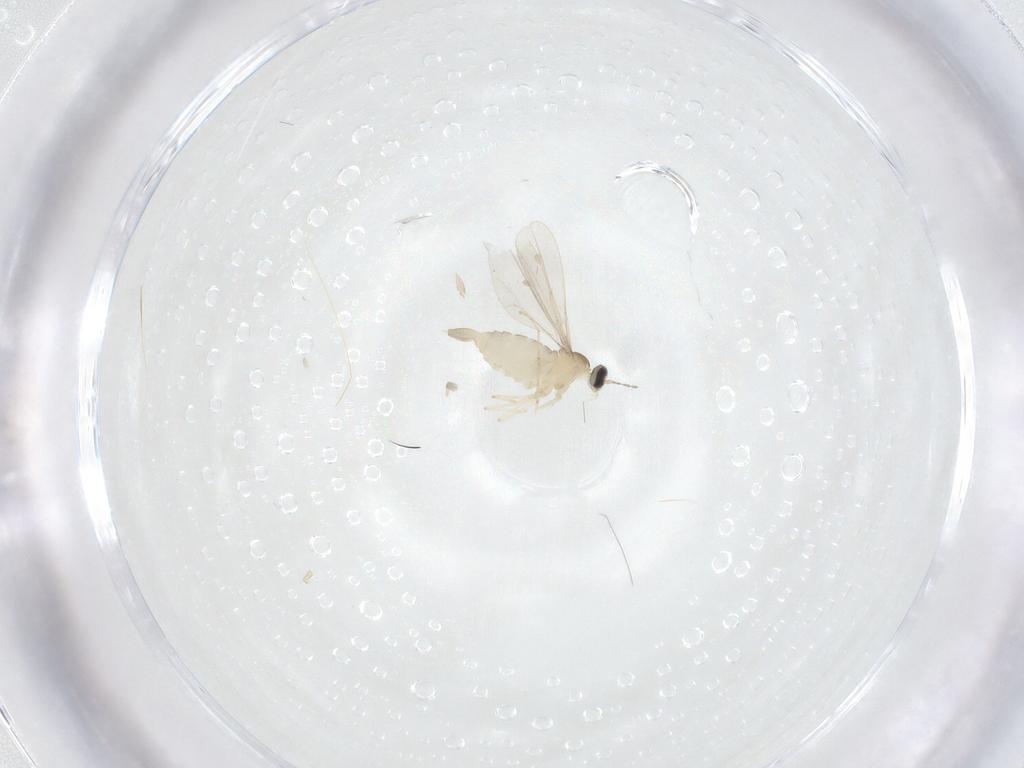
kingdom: Animalia
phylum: Arthropoda
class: Insecta
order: Diptera
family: Cecidomyiidae
